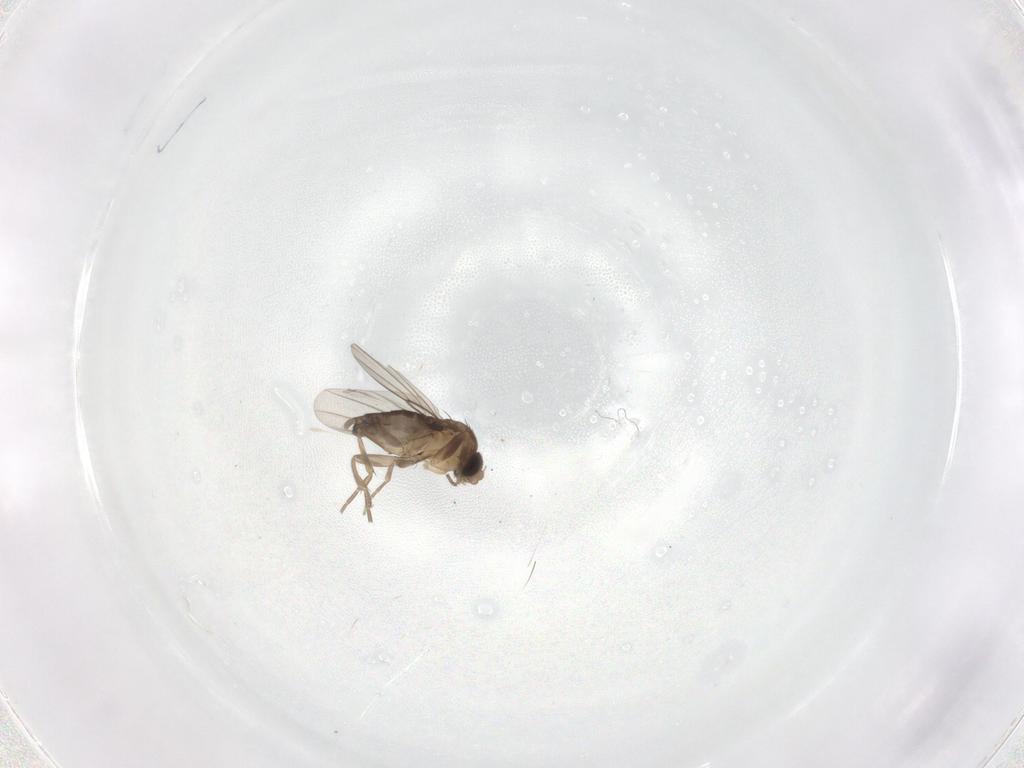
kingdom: Animalia
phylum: Arthropoda
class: Insecta
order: Diptera
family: Phoridae
